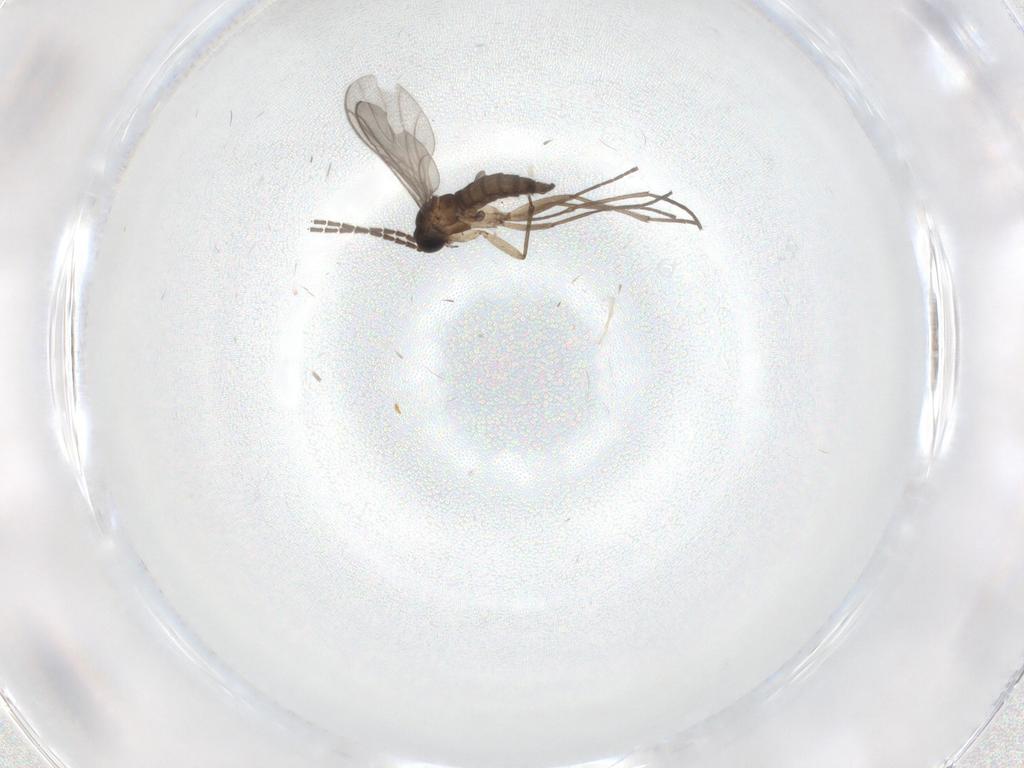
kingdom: Animalia
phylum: Arthropoda
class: Insecta
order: Diptera
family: Sciaridae
